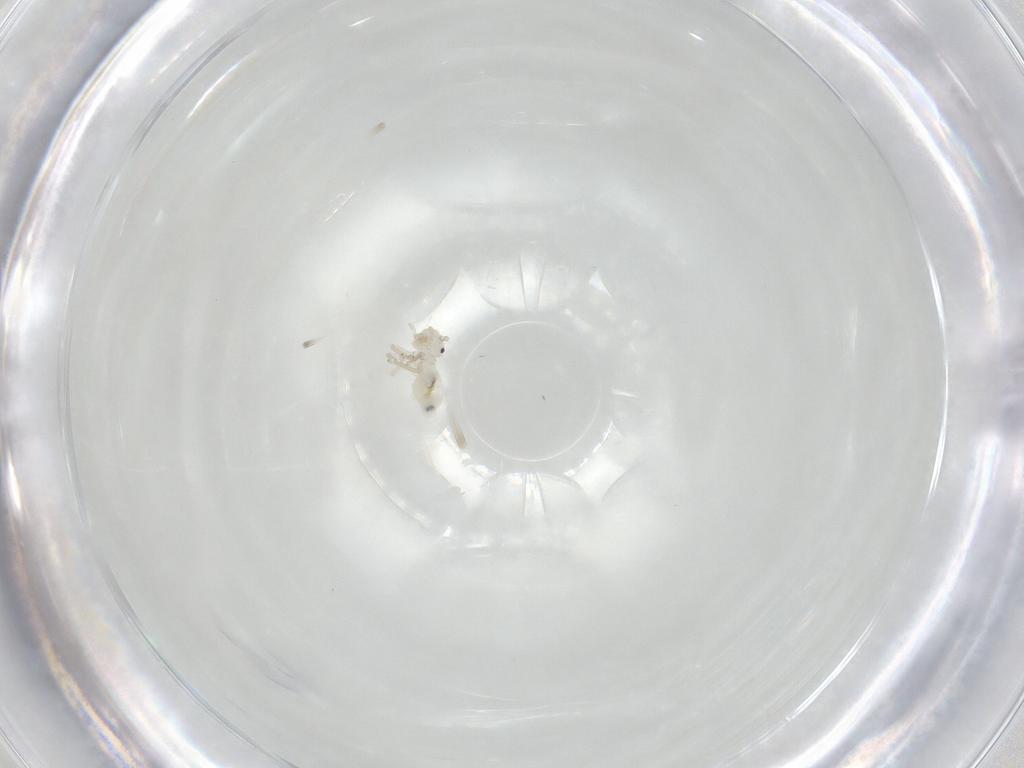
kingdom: Animalia
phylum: Arthropoda
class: Insecta
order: Psocodea
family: Philotarsidae
